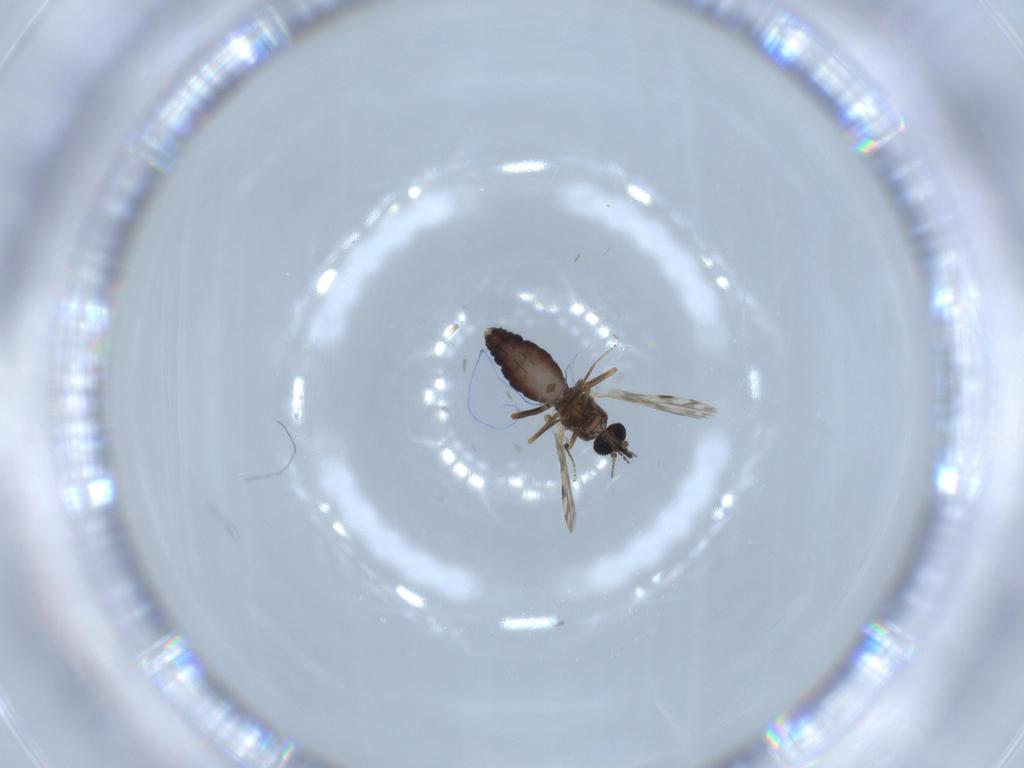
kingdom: Animalia
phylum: Arthropoda
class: Insecta
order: Diptera
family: Ceratopogonidae
